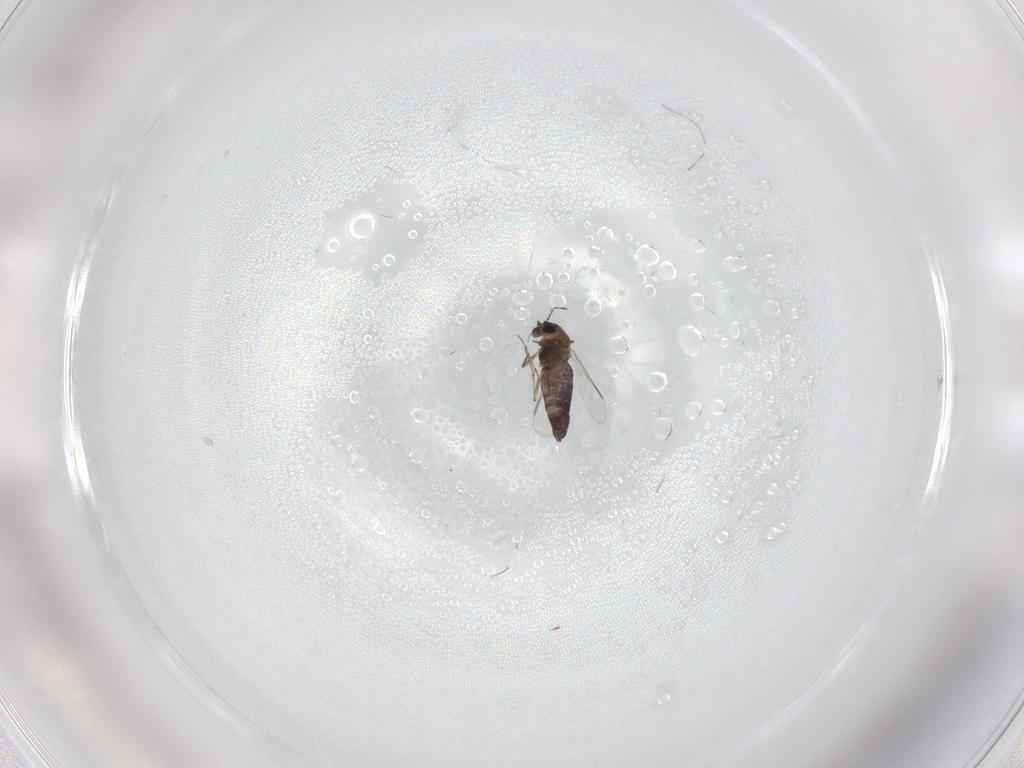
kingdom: Animalia
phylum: Arthropoda
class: Insecta
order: Diptera
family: Chironomidae
